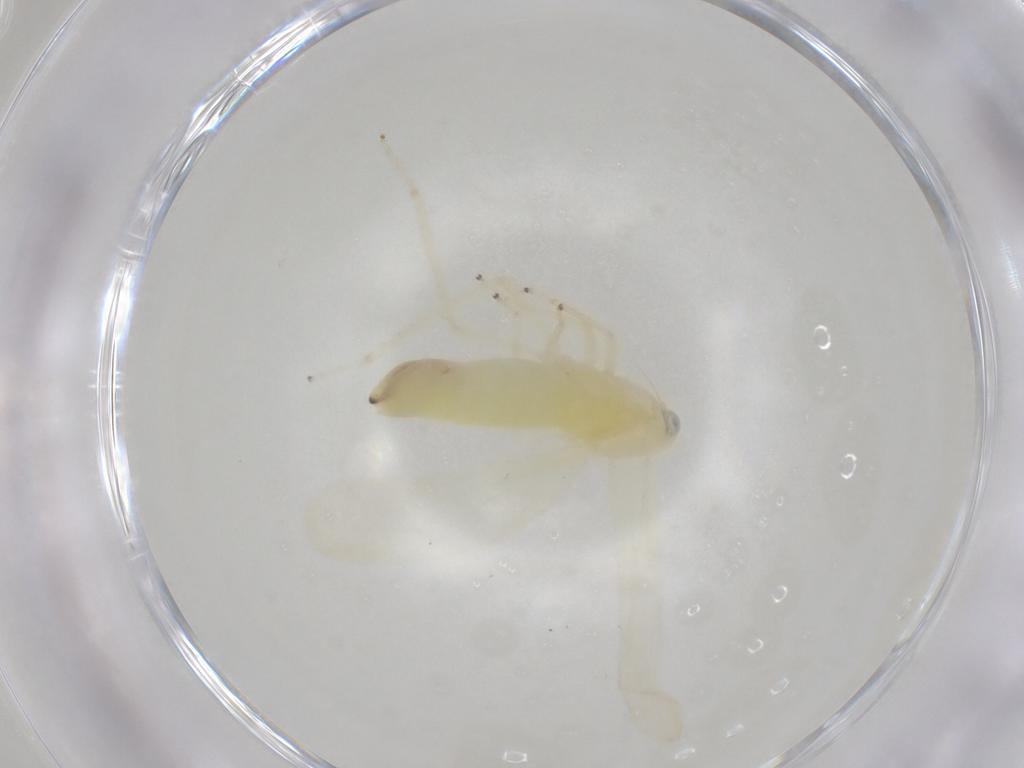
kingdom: Animalia
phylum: Arthropoda
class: Insecta
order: Hemiptera
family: Cicadellidae
